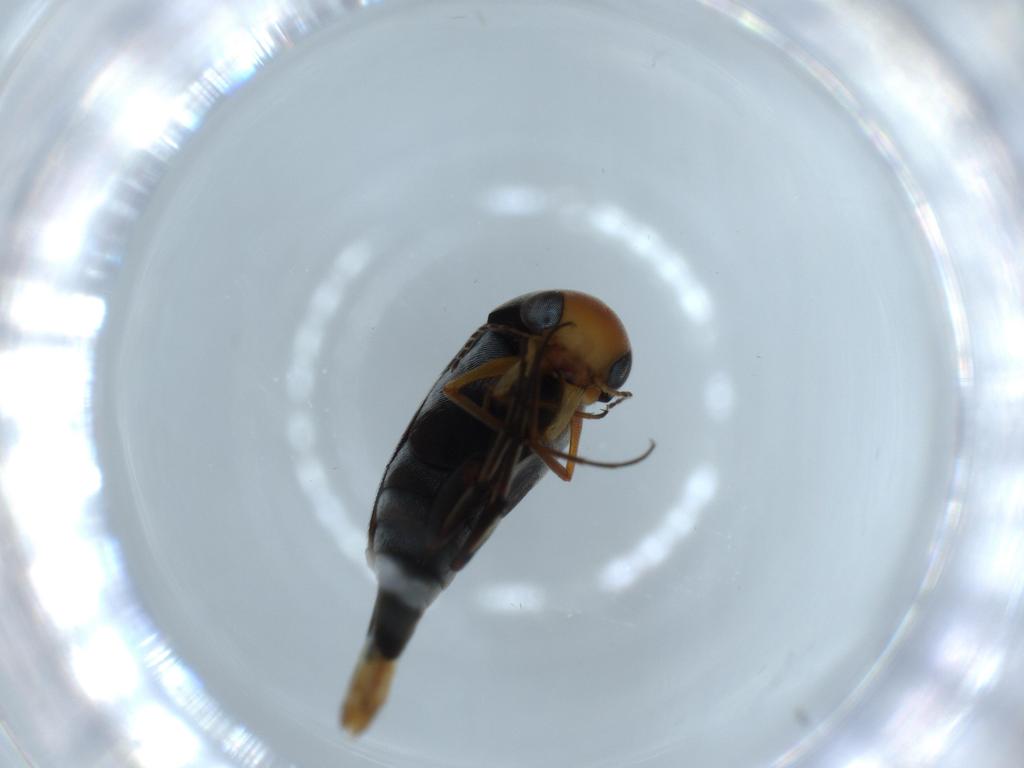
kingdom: Animalia
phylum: Arthropoda
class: Insecta
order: Coleoptera
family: Mordellidae
